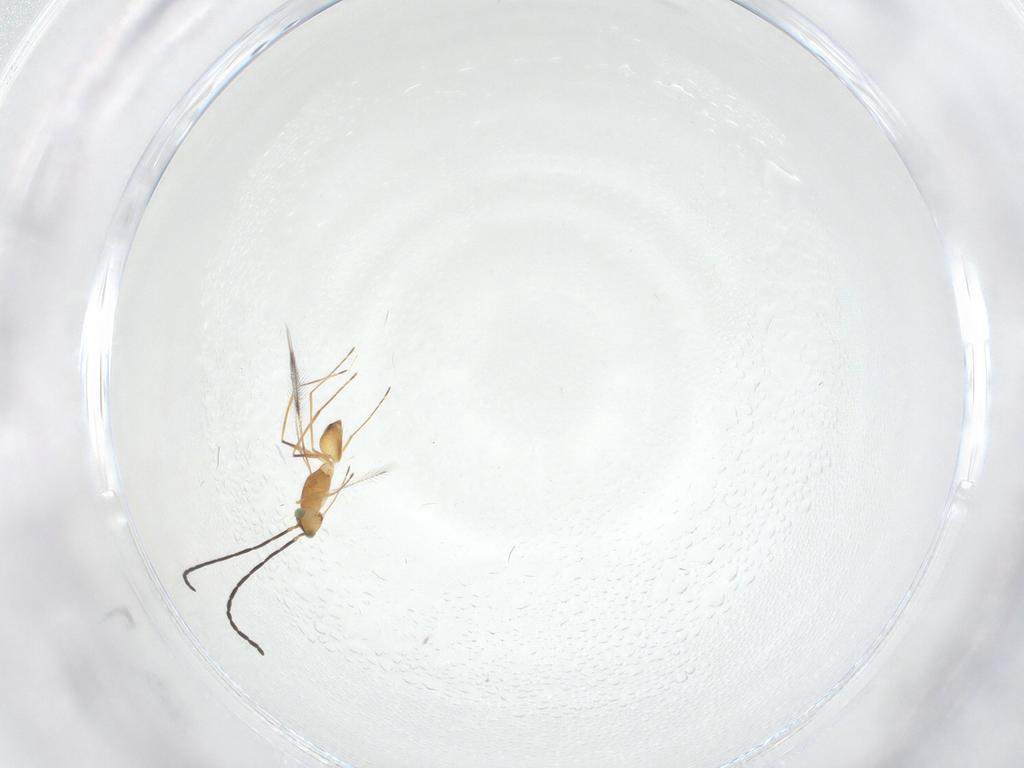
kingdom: Animalia
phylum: Arthropoda
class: Insecta
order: Hymenoptera
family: Mymaridae
